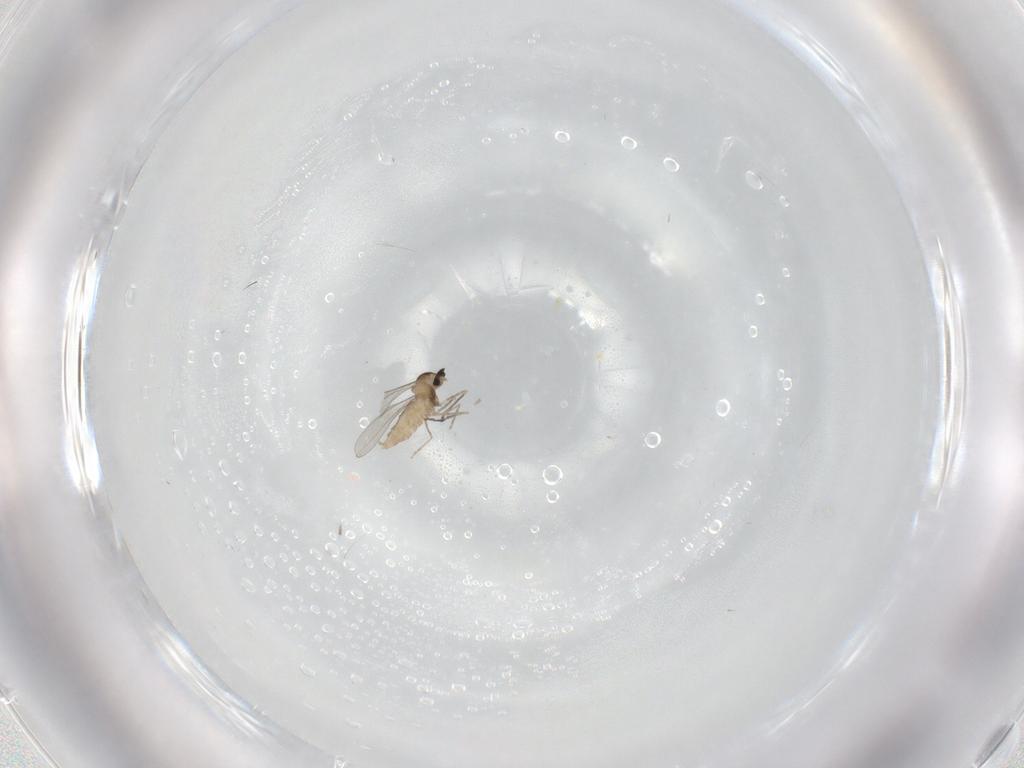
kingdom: Animalia
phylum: Arthropoda
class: Insecta
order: Diptera
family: Cecidomyiidae
